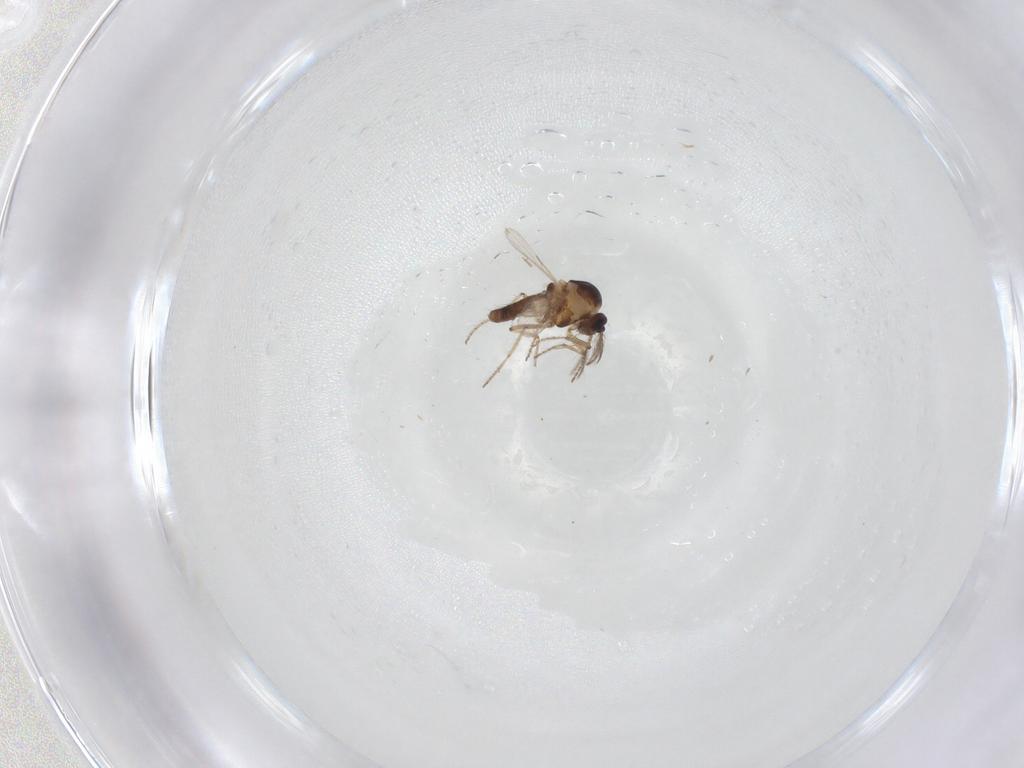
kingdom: Animalia
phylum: Arthropoda
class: Insecta
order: Diptera
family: Ceratopogonidae
